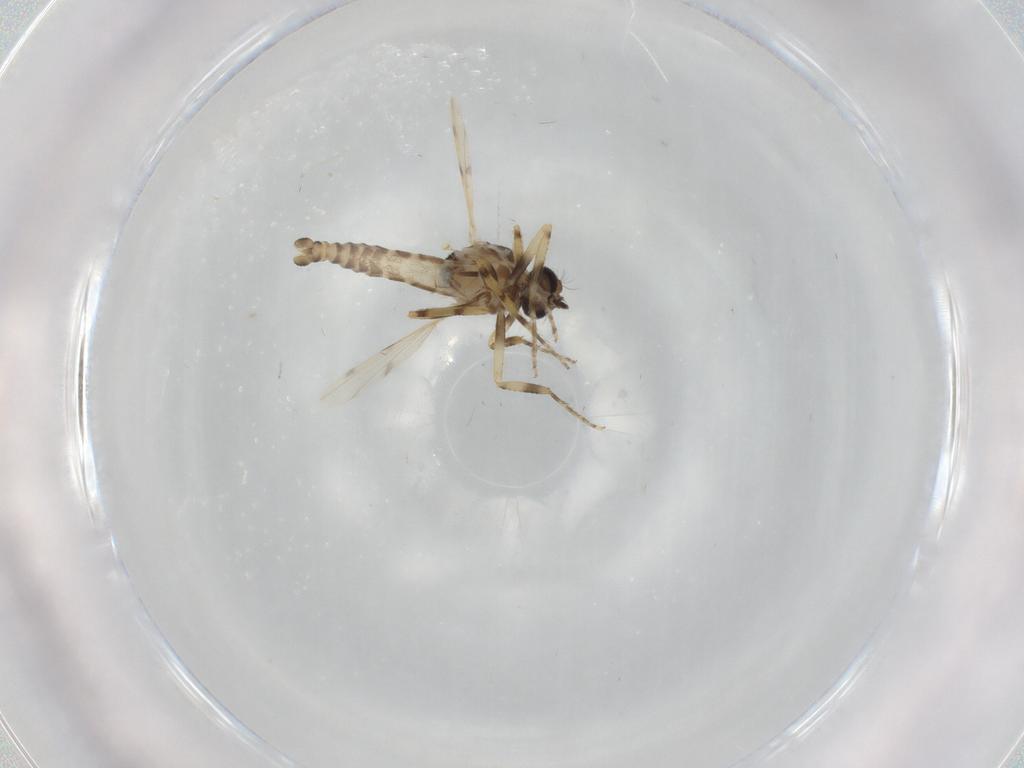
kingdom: Animalia
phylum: Arthropoda
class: Insecta
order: Diptera
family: Ceratopogonidae
